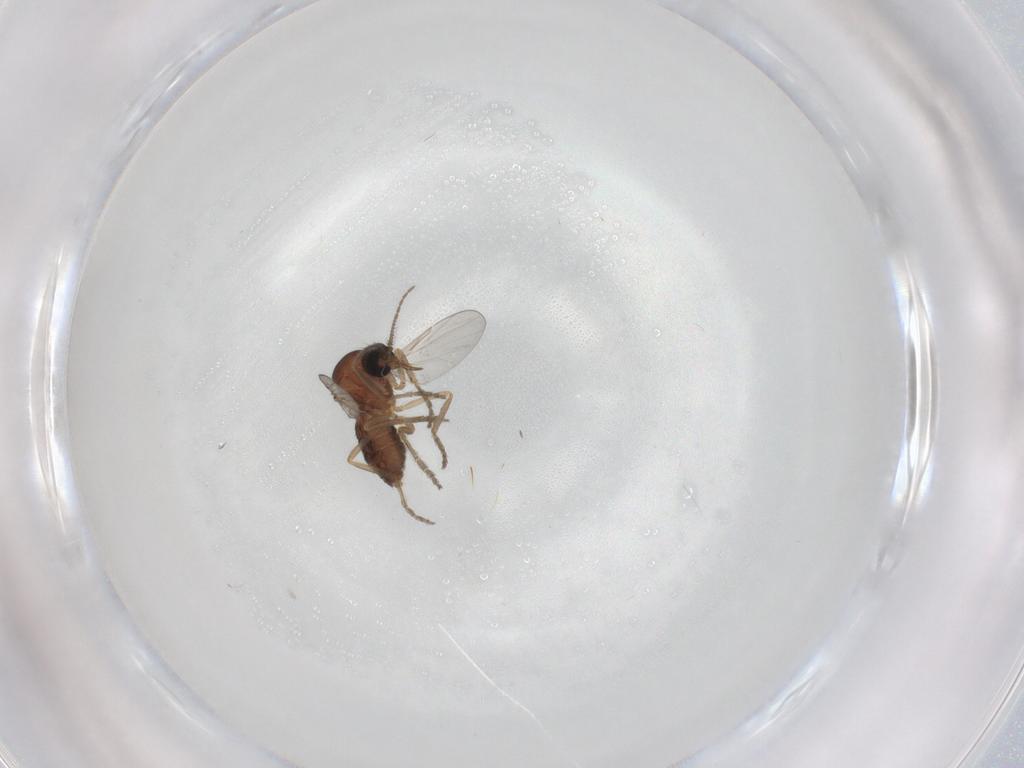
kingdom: Animalia
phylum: Arthropoda
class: Insecta
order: Diptera
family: Ceratopogonidae
